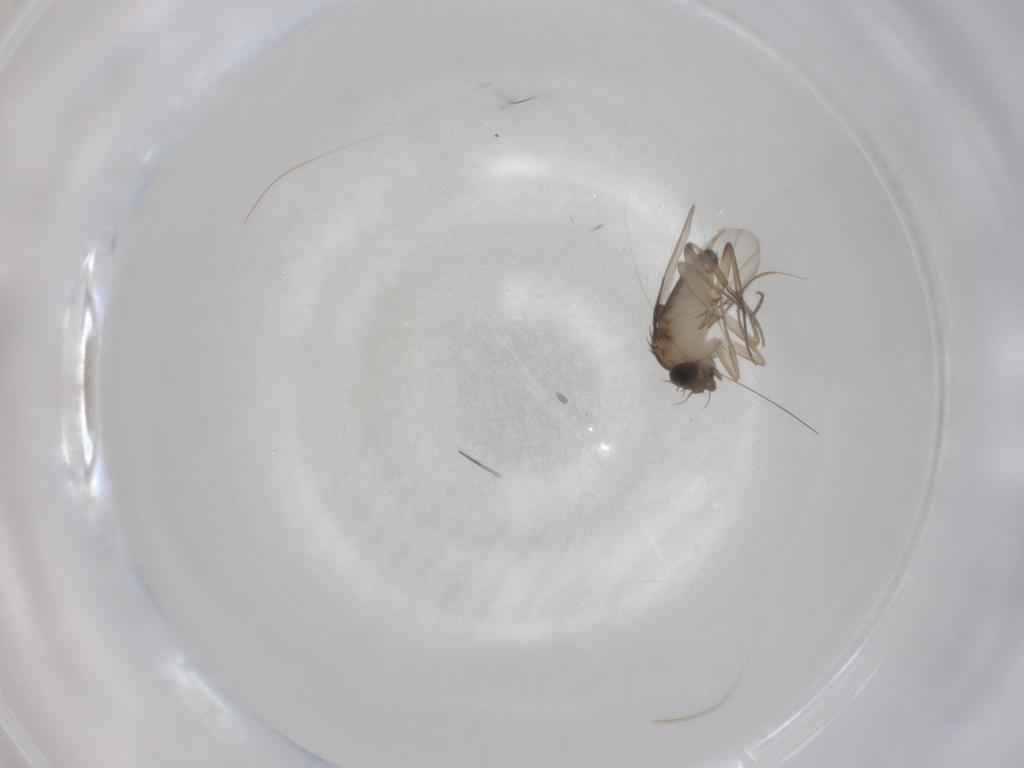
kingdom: Animalia
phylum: Arthropoda
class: Insecta
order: Diptera
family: Phoridae
